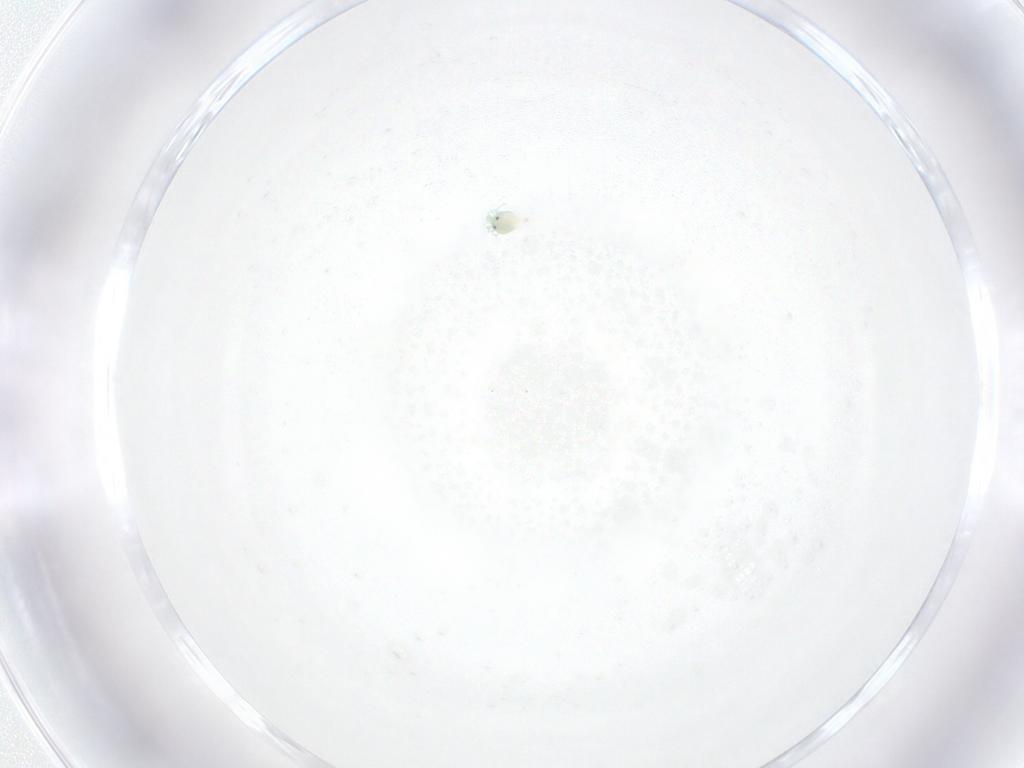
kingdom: Animalia
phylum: Arthropoda
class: Arachnida
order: Trombidiformes
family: Arrenuridae
